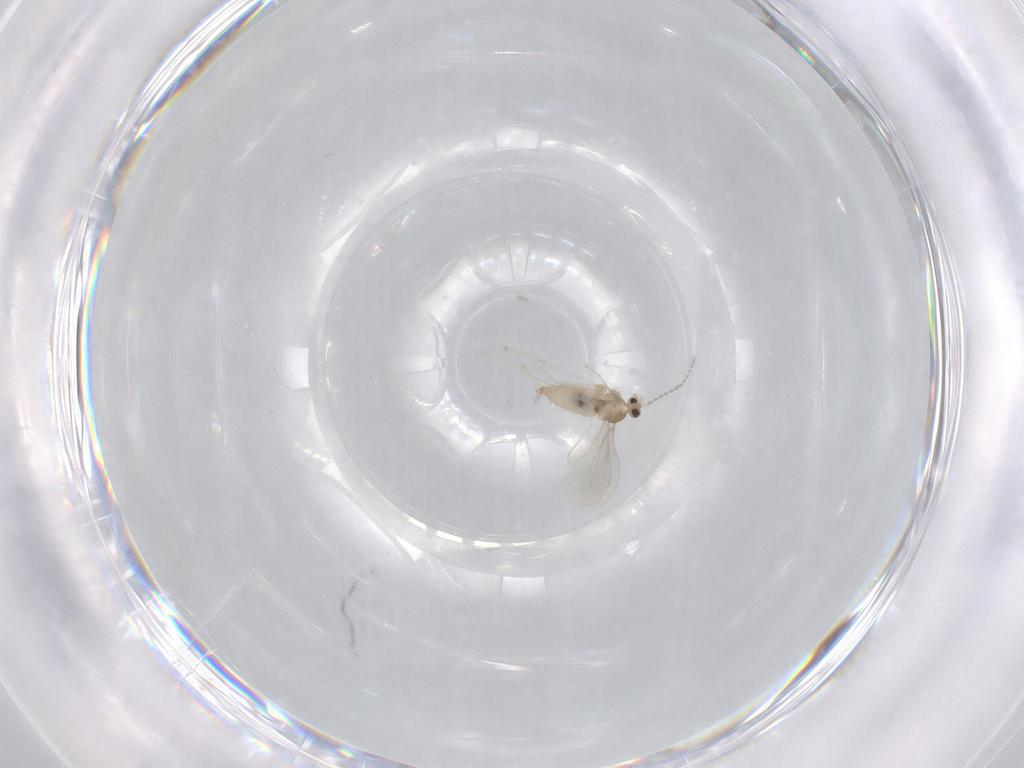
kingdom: Animalia
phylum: Arthropoda
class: Insecta
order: Diptera
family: Cecidomyiidae
